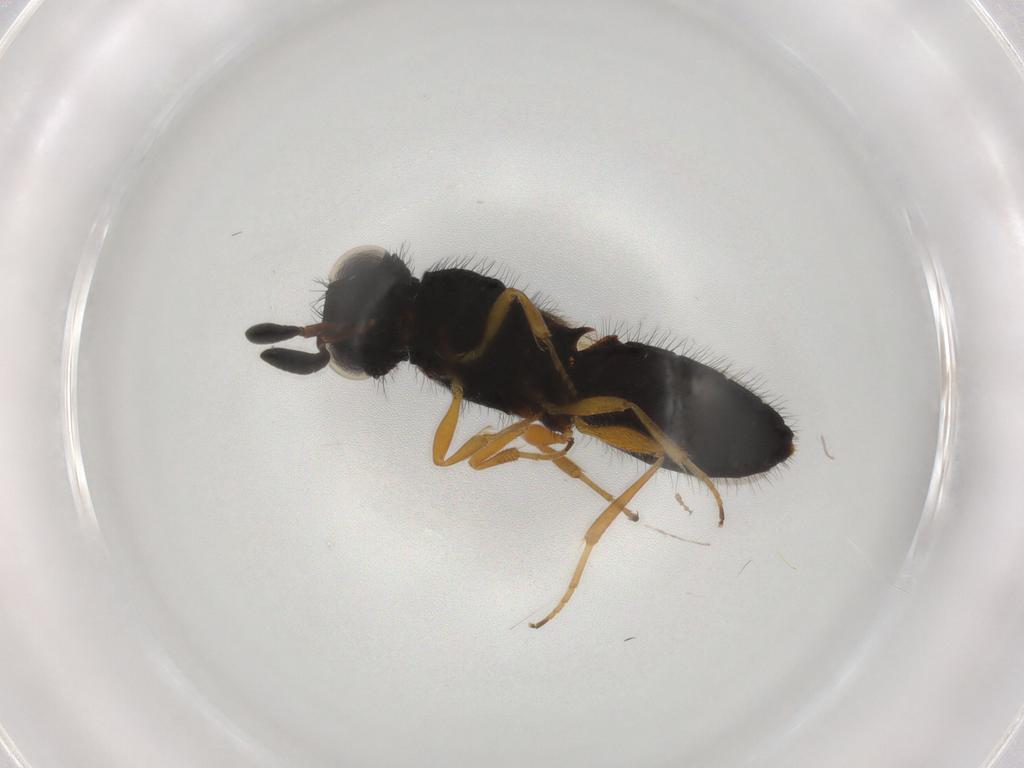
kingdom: Animalia
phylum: Arthropoda
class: Insecta
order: Hymenoptera
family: Scelionidae
